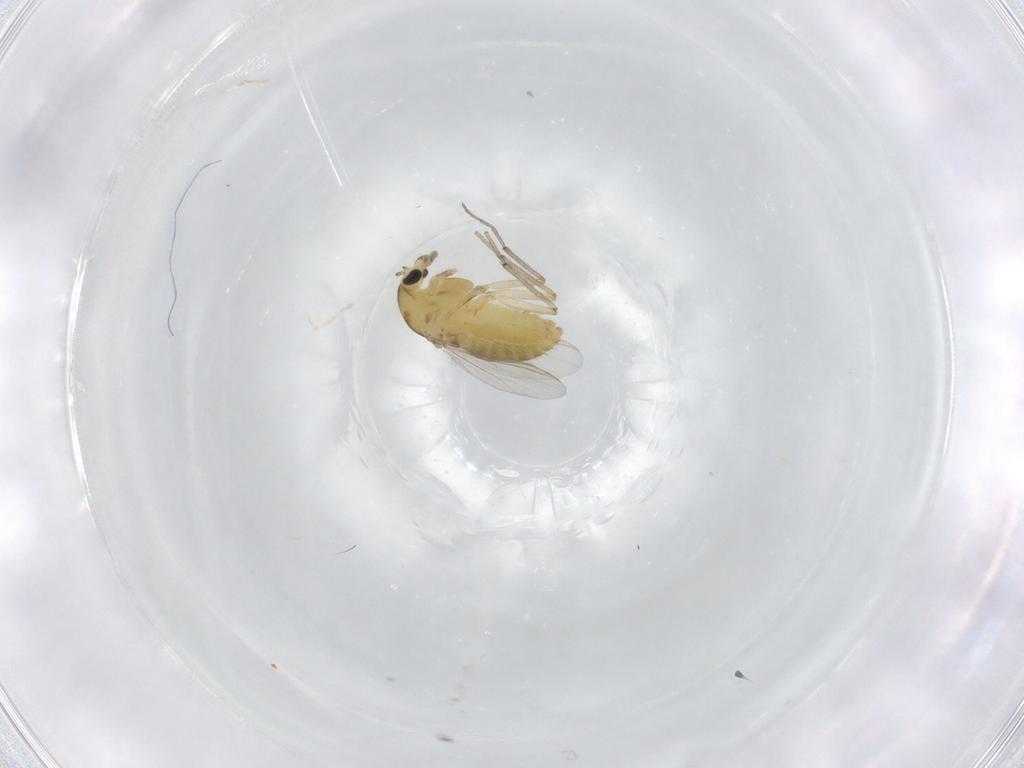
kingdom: Animalia
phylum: Arthropoda
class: Insecta
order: Diptera
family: Chironomidae
